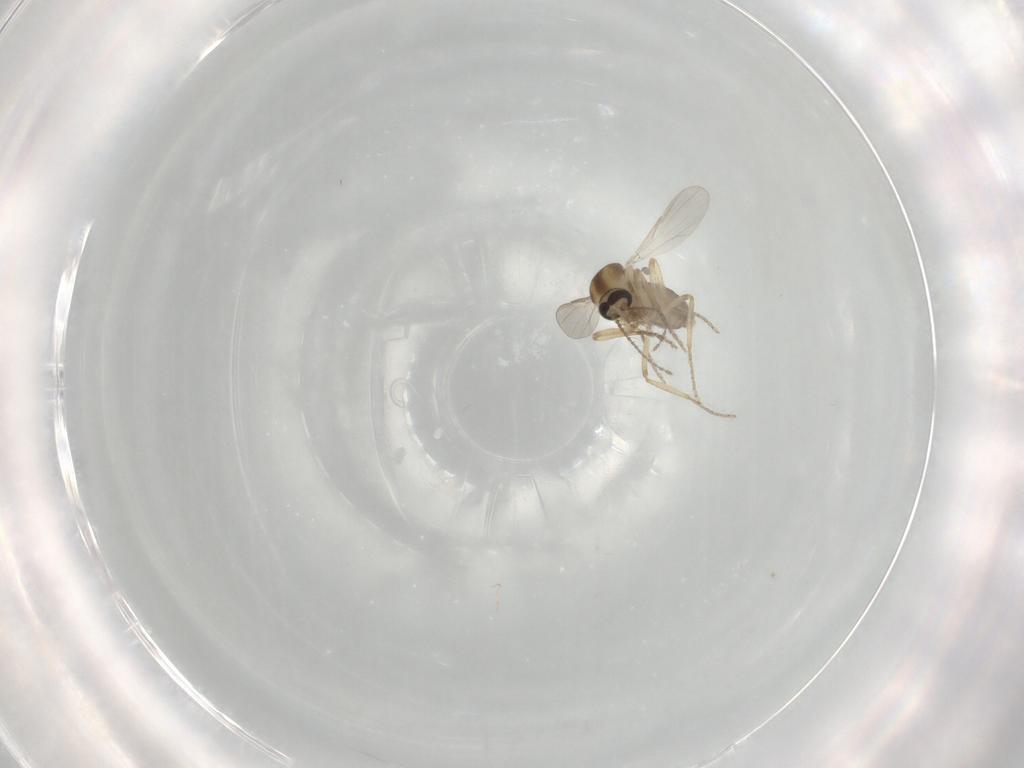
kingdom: Animalia
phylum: Arthropoda
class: Insecta
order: Diptera
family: Ceratopogonidae
